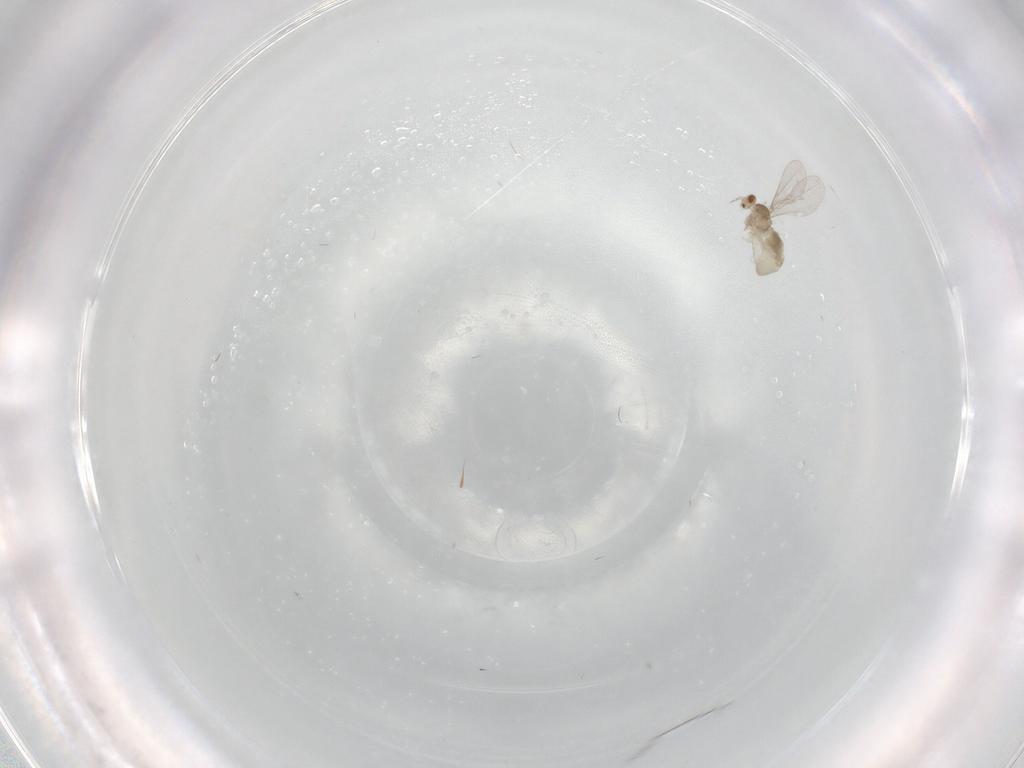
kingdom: Animalia
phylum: Arthropoda
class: Insecta
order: Diptera
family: Cecidomyiidae
